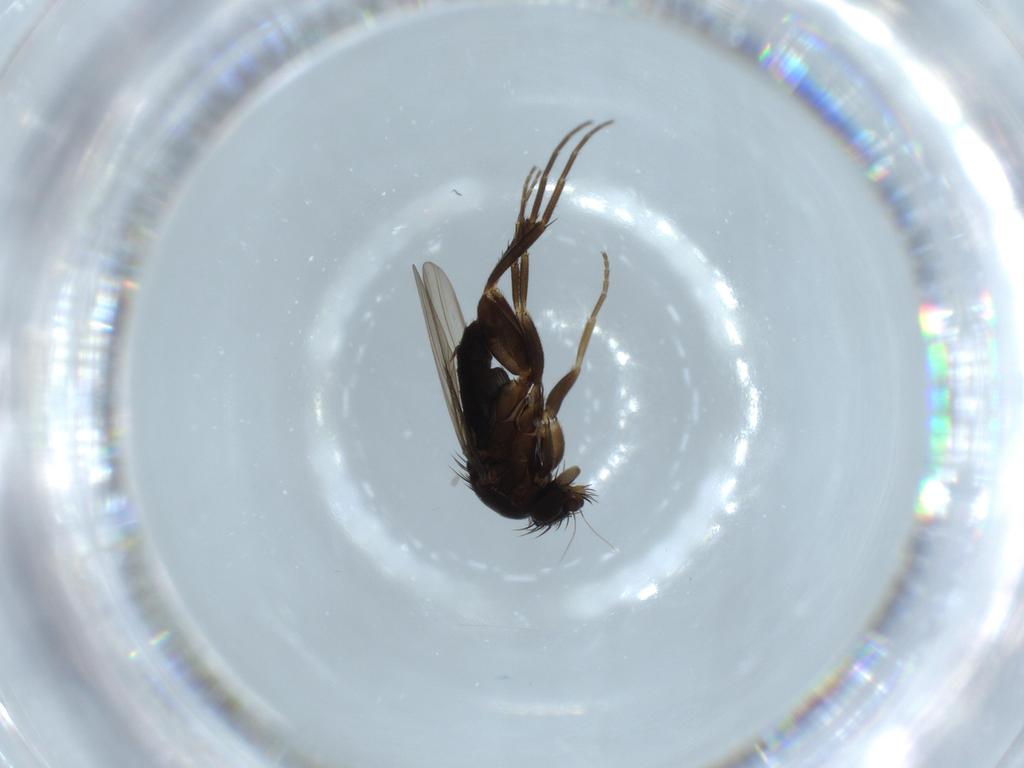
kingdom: Animalia
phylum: Arthropoda
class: Insecta
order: Diptera
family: Phoridae
